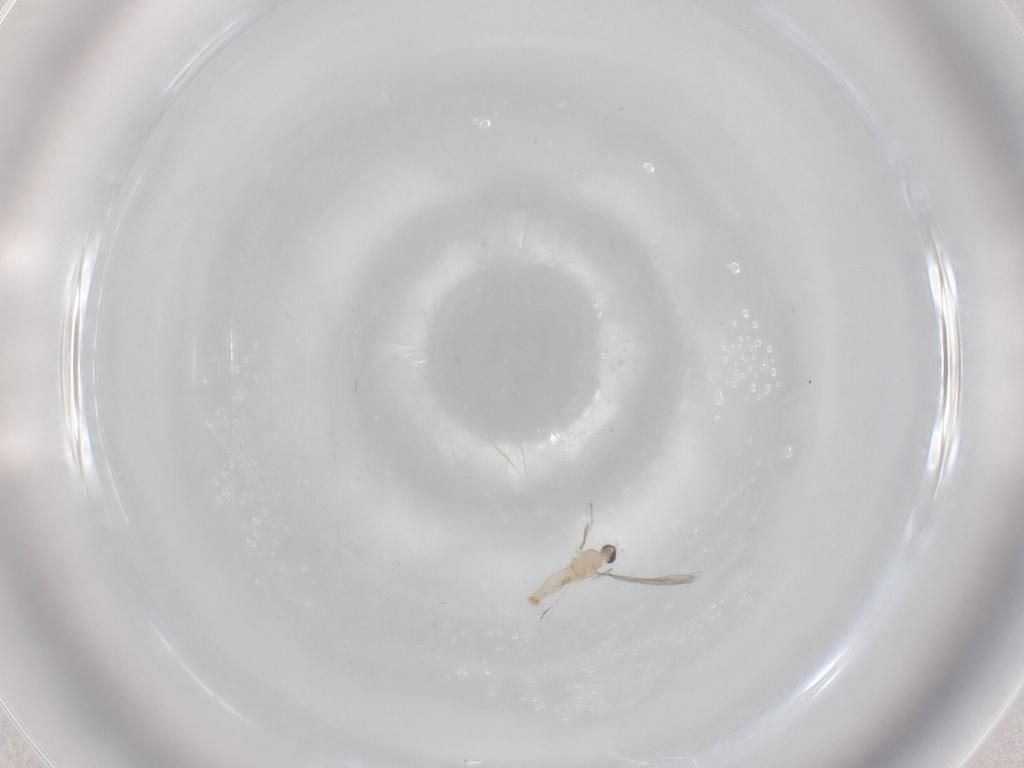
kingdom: Animalia
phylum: Arthropoda
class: Insecta
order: Diptera
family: Cecidomyiidae
